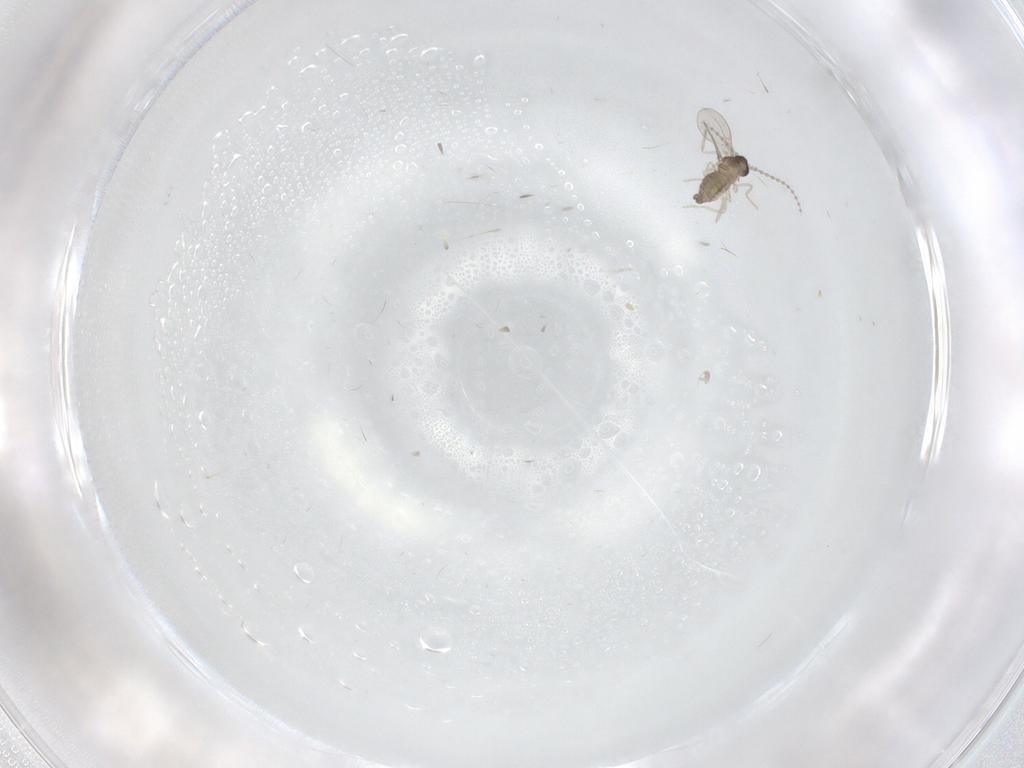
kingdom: Animalia
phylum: Arthropoda
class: Insecta
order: Diptera
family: Cecidomyiidae
